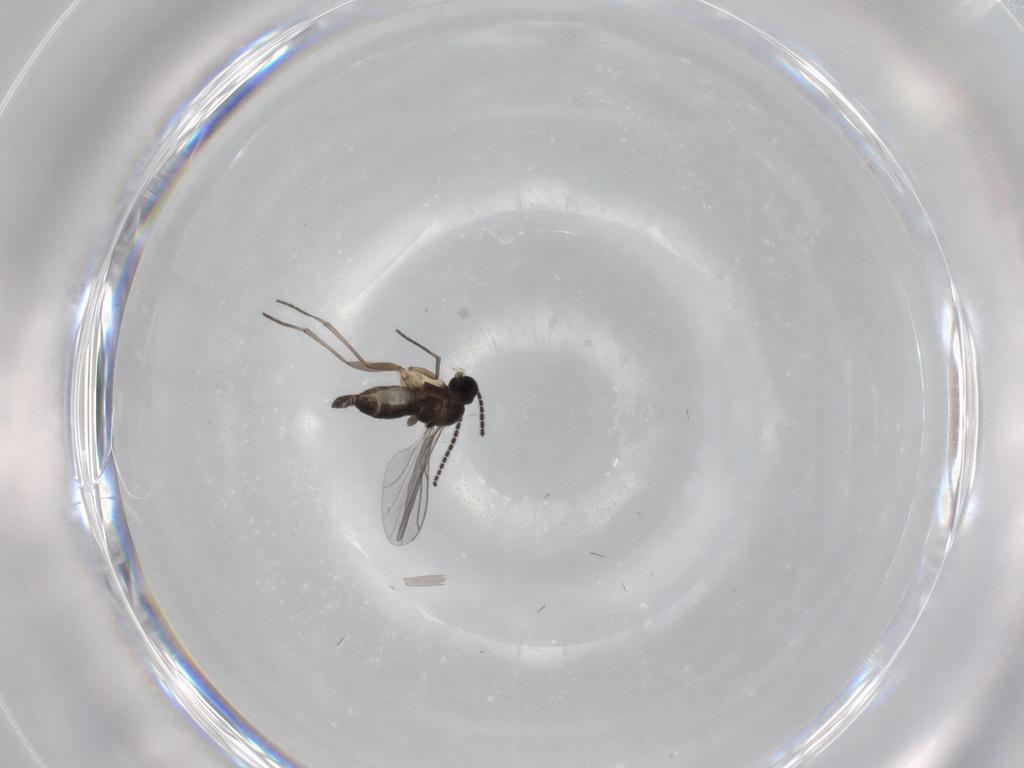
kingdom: Animalia
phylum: Arthropoda
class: Insecta
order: Diptera
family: Sciaridae
